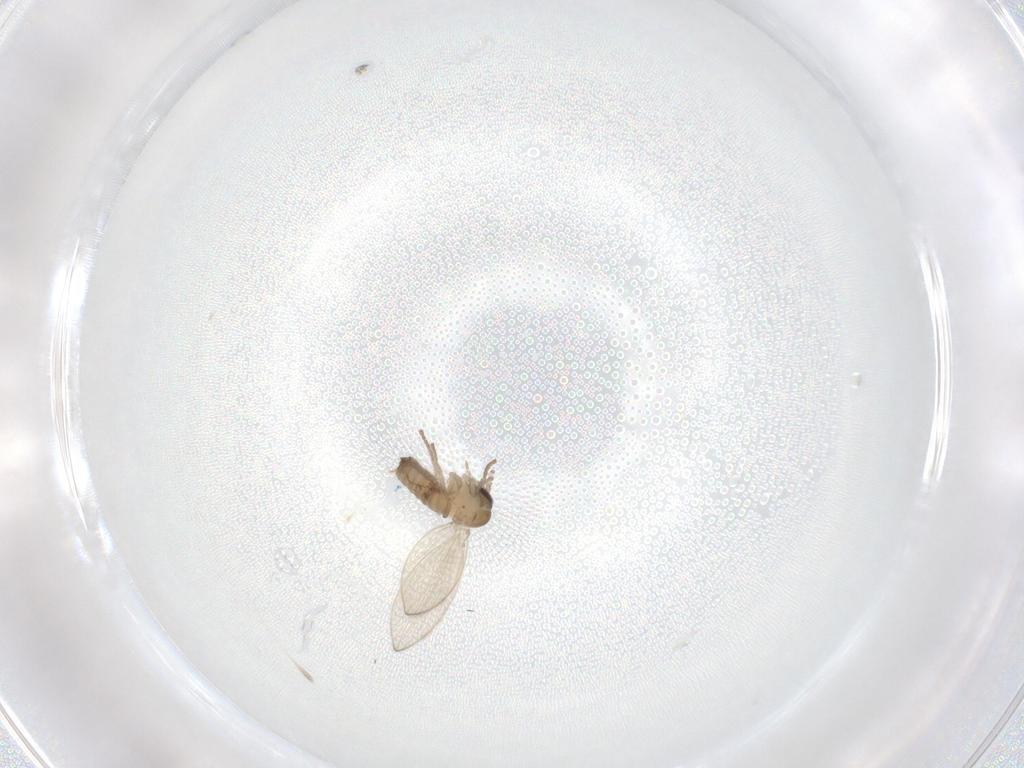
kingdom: Animalia
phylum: Arthropoda
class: Insecta
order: Diptera
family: Psychodidae
